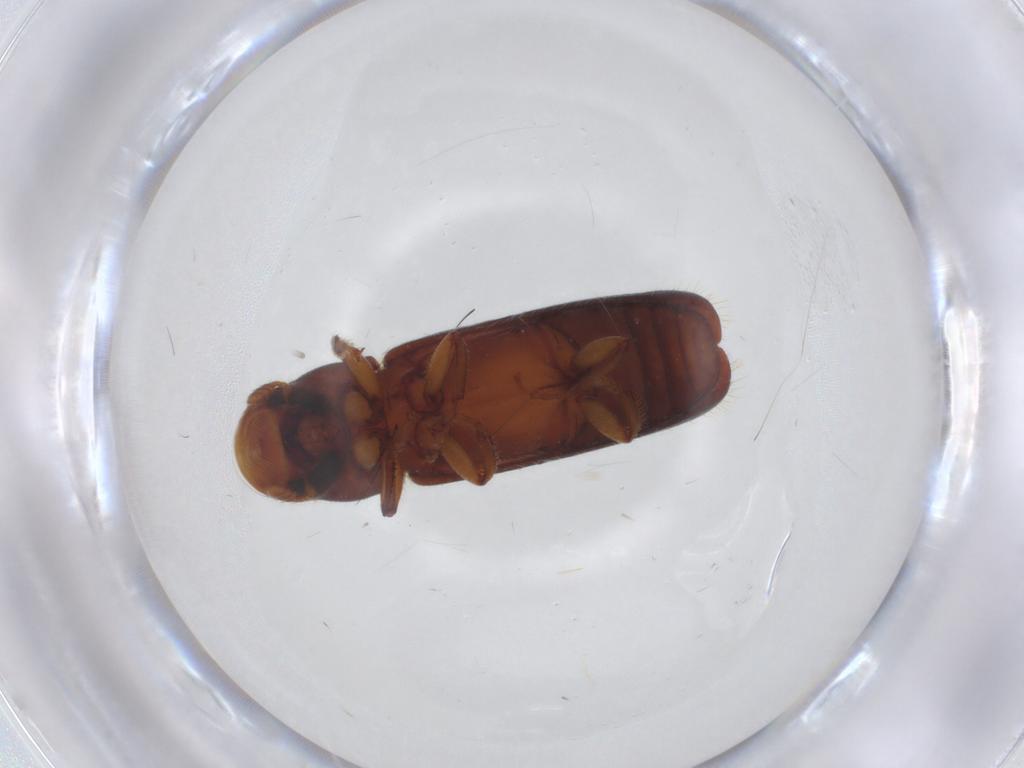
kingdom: Animalia
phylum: Arthropoda
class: Insecta
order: Coleoptera
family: Curculionidae
